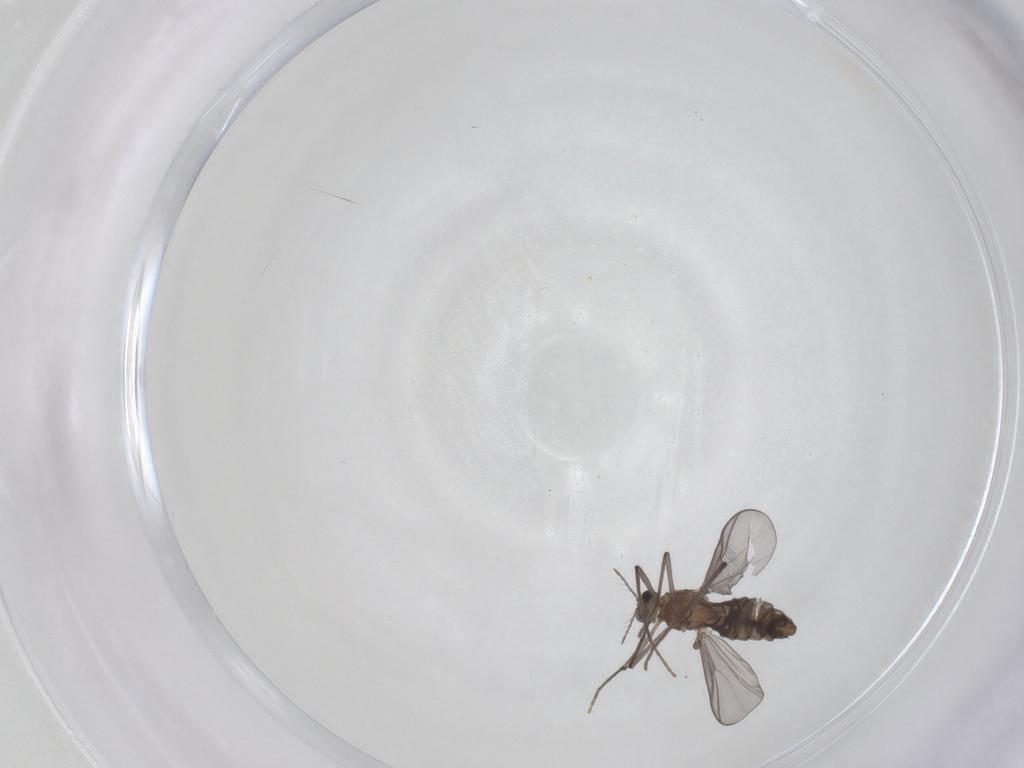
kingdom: Animalia
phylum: Arthropoda
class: Insecta
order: Diptera
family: Chironomidae
